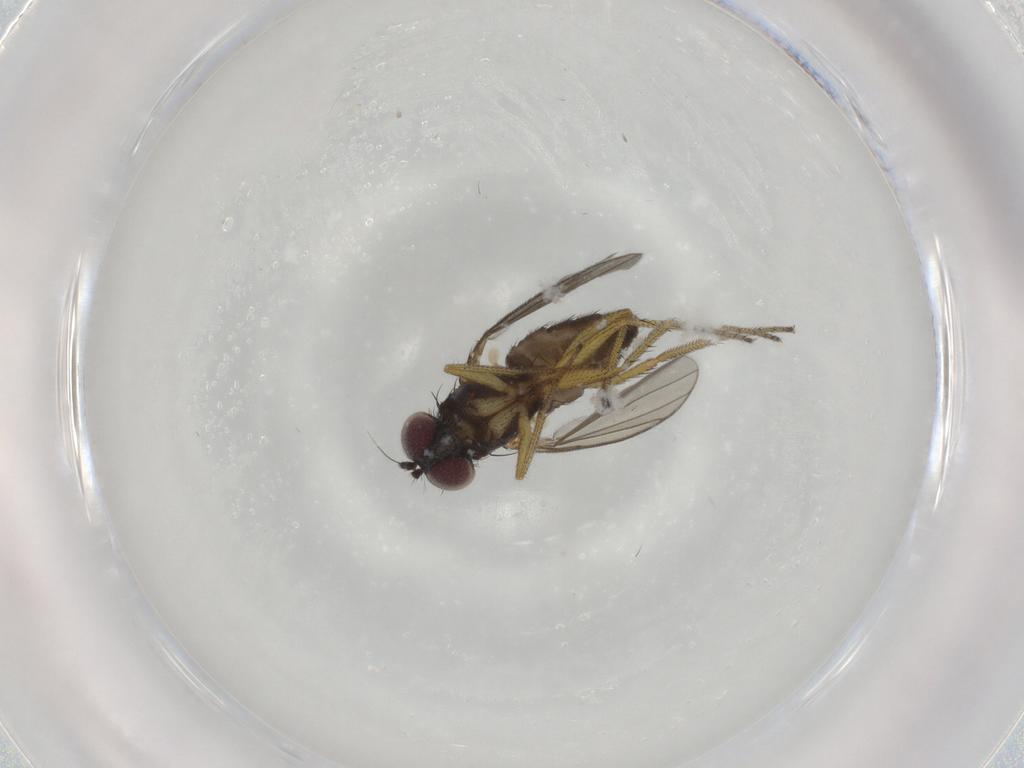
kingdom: Animalia
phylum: Arthropoda
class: Insecta
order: Diptera
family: Dolichopodidae
